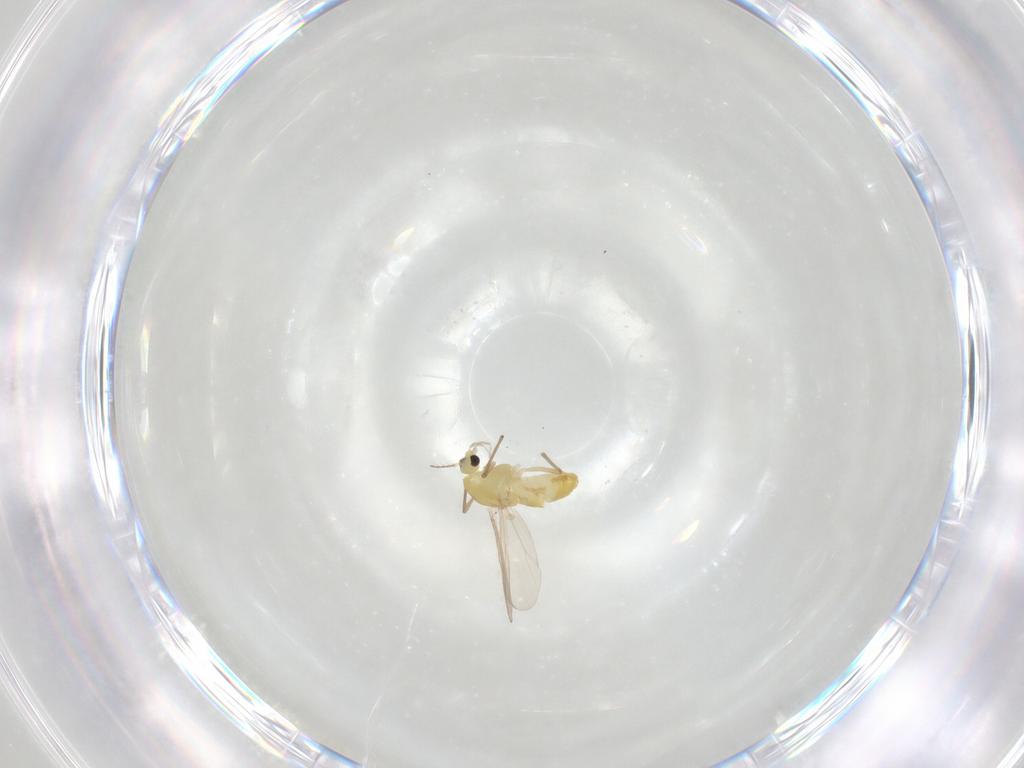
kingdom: Animalia
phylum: Arthropoda
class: Insecta
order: Diptera
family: Chironomidae
